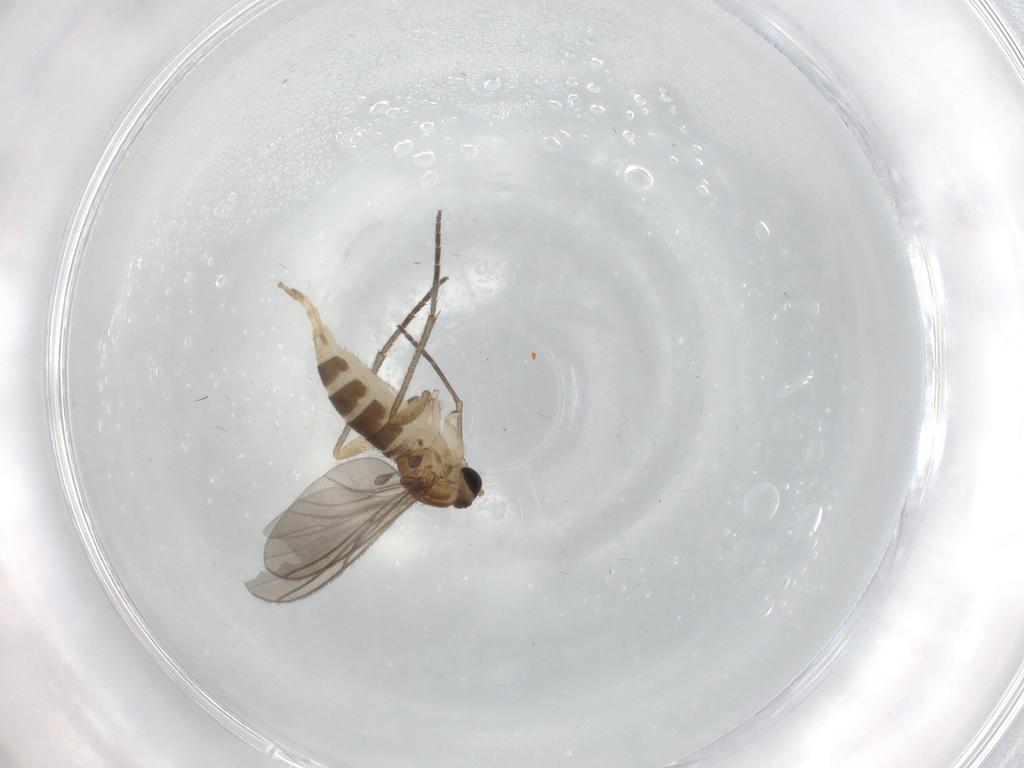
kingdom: Animalia
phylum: Arthropoda
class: Insecta
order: Diptera
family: Sciaridae
